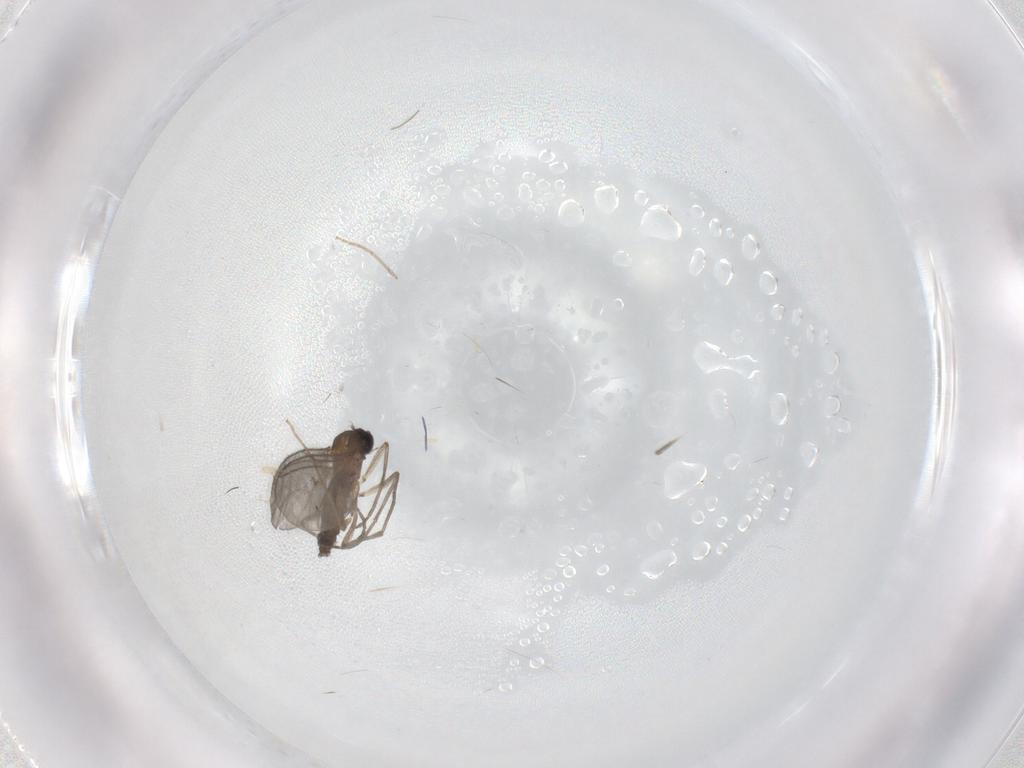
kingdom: Animalia
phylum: Arthropoda
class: Insecta
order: Diptera
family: Sciaridae
